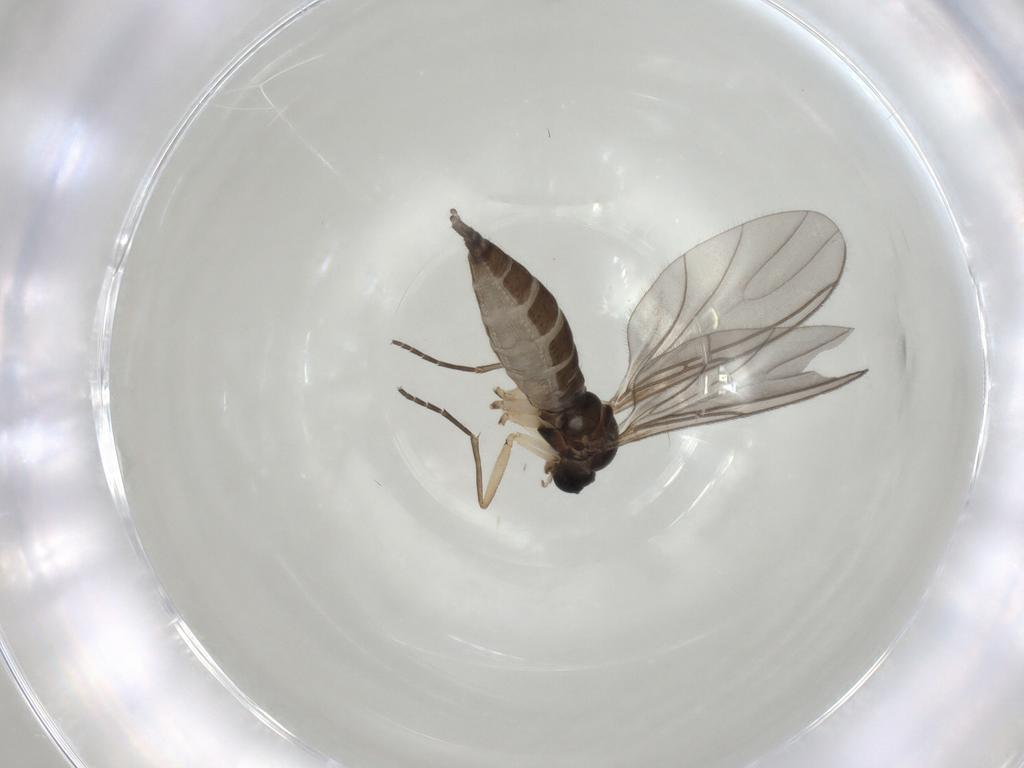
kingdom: Animalia
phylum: Arthropoda
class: Insecta
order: Diptera
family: Sciaridae
